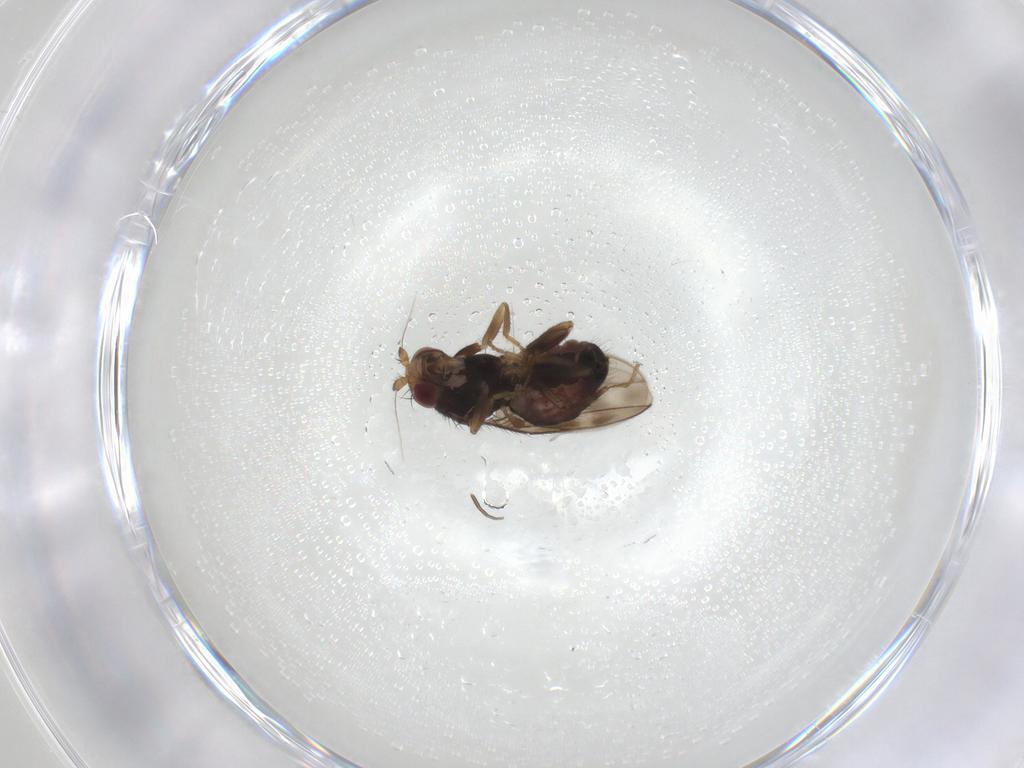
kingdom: Animalia
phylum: Arthropoda
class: Insecta
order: Diptera
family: Sphaeroceridae
